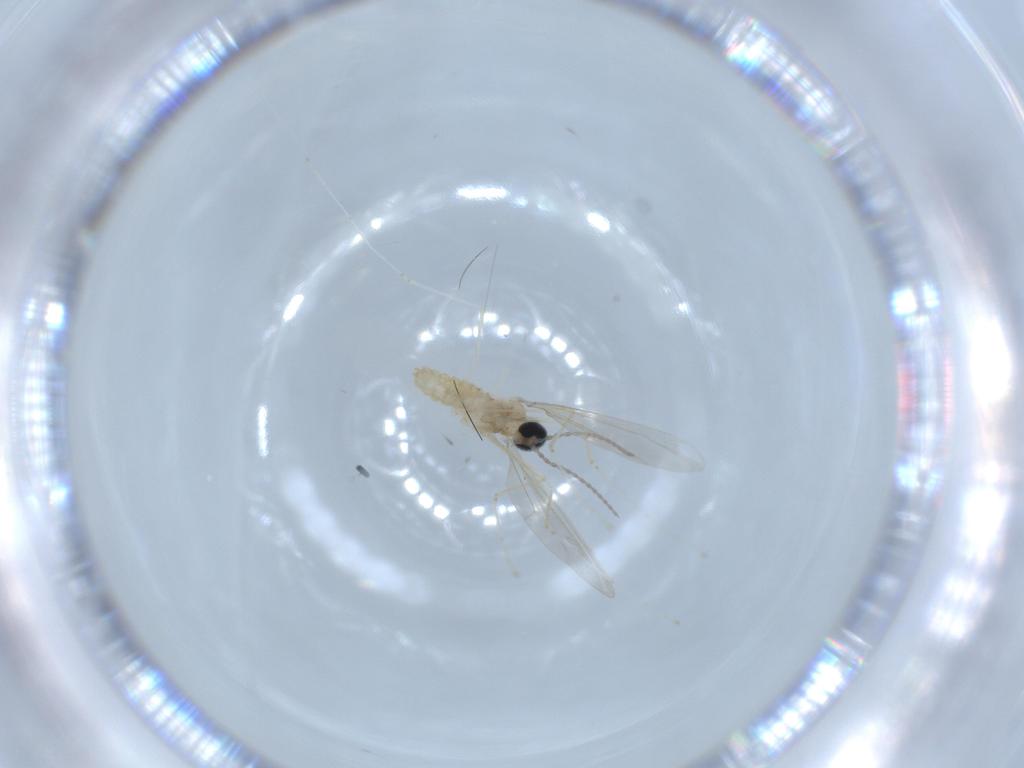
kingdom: Animalia
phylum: Arthropoda
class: Insecta
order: Diptera
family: Cecidomyiidae
